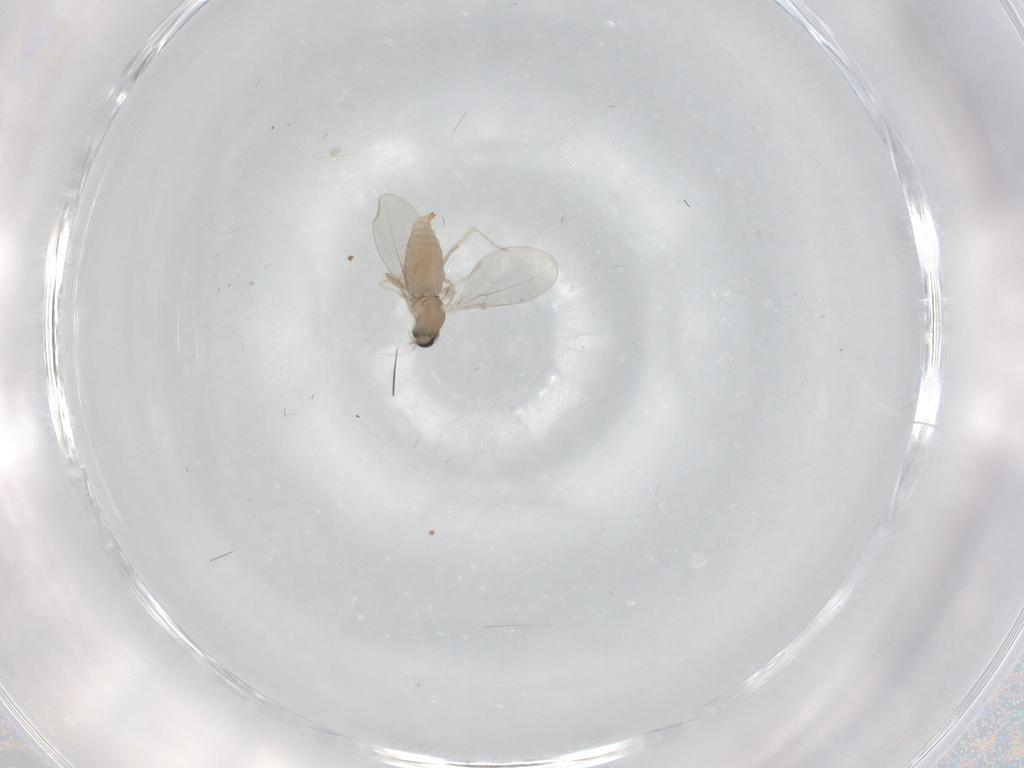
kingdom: Animalia
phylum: Arthropoda
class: Insecta
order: Diptera
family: Cecidomyiidae
